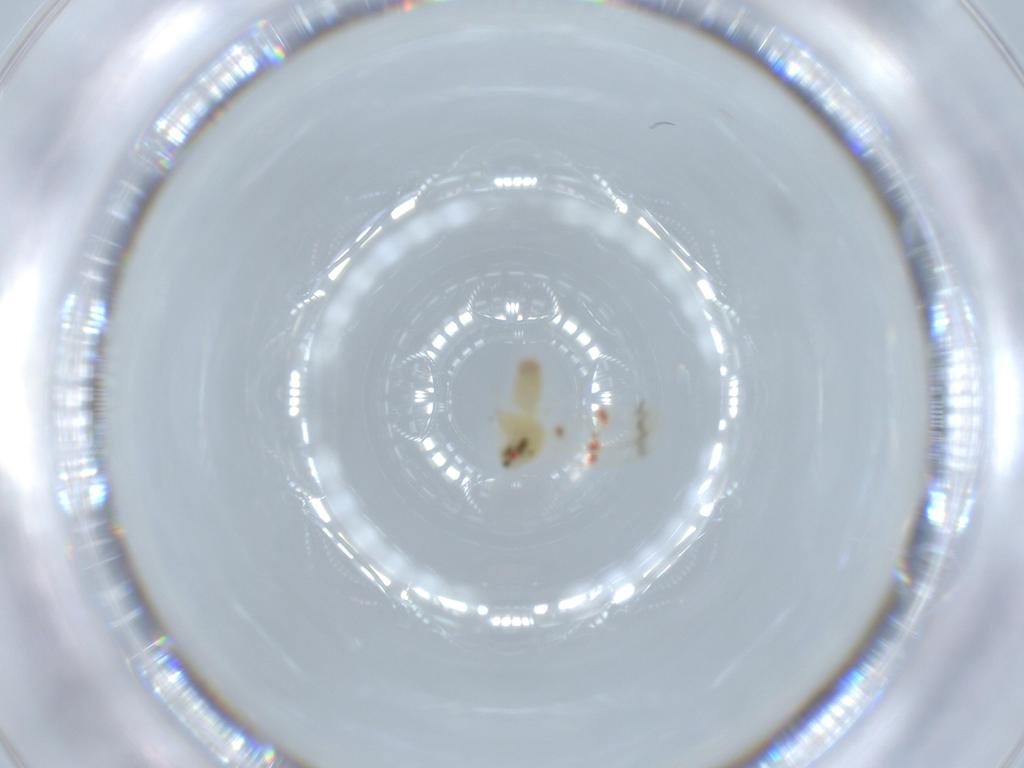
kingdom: Animalia
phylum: Arthropoda
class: Insecta
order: Hemiptera
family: Aleyrodidae
